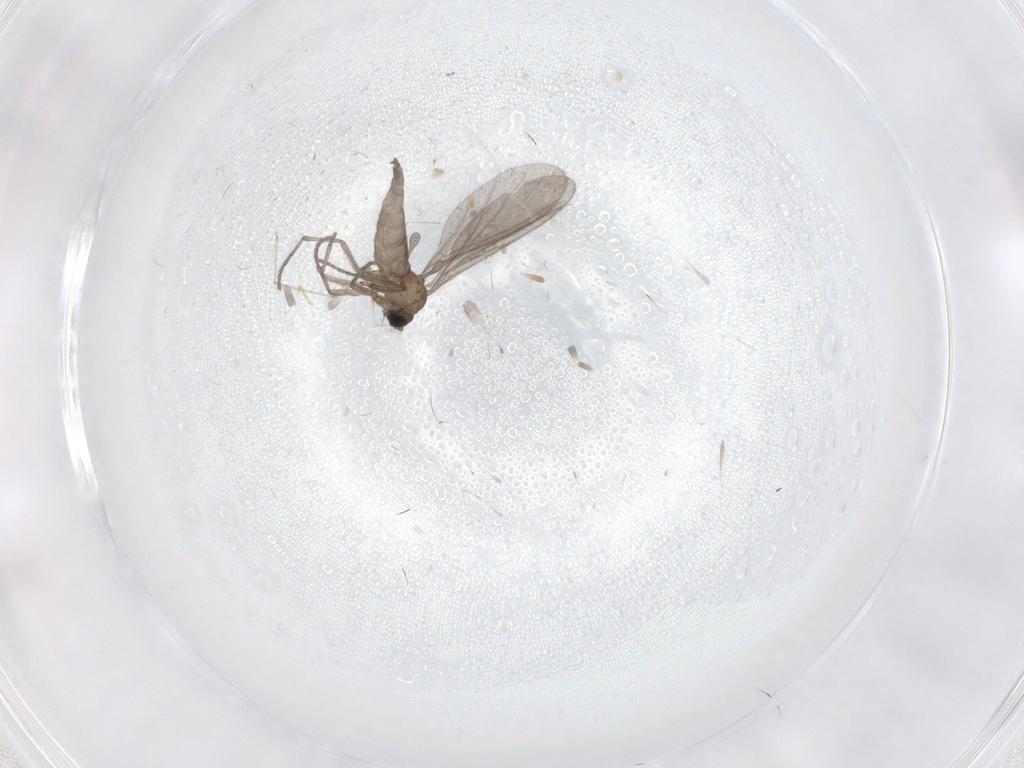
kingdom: Animalia
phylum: Arthropoda
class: Insecta
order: Diptera
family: Sciaridae
